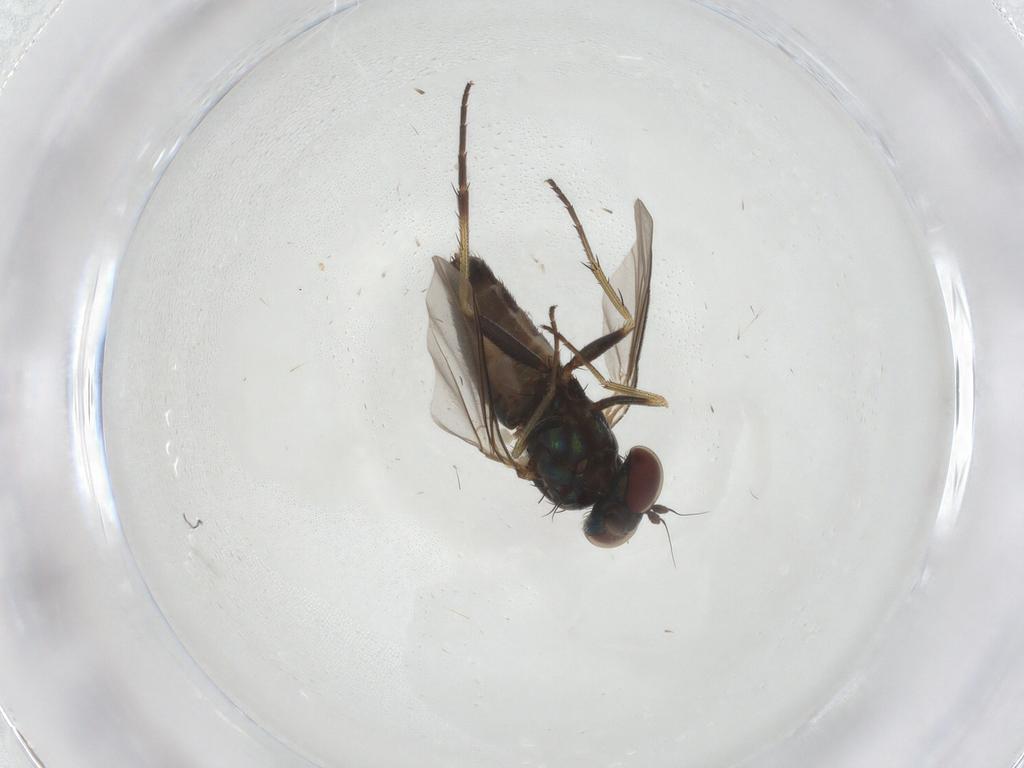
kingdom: Animalia
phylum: Arthropoda
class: Insecta
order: Diptera
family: Dolichopodidae
